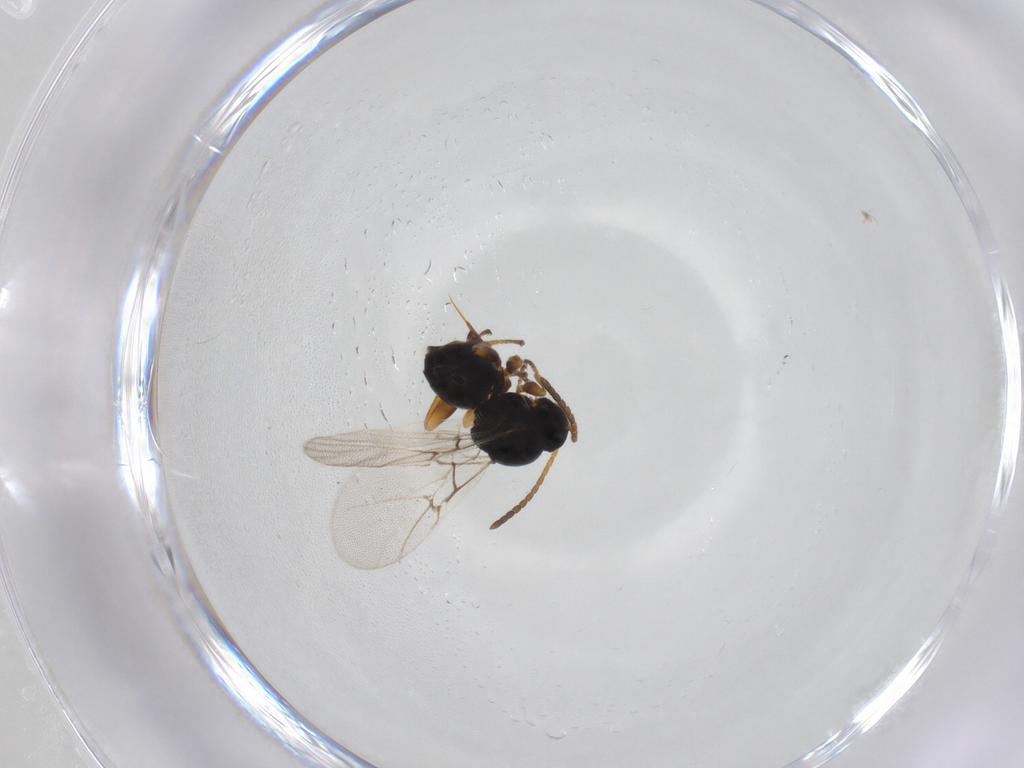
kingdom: Animalia
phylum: Arthropoda
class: Insecta
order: Hymenoptera
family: Cynipidae
